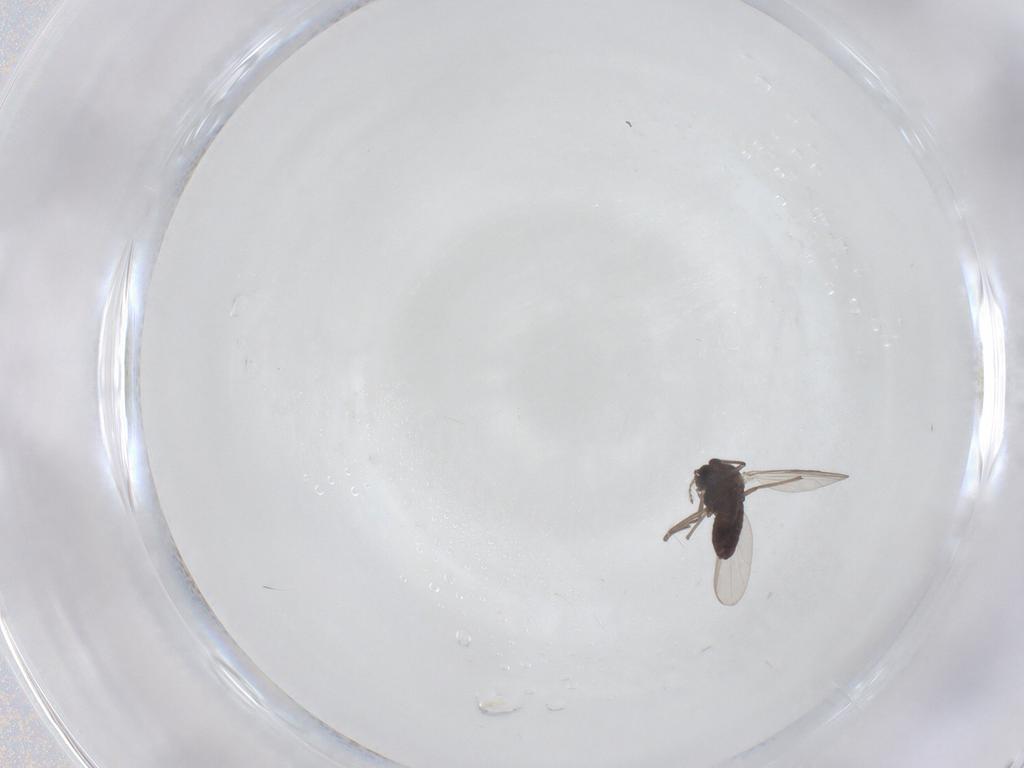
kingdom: Animalia
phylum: Arthropoda
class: Insecta
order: Diptera
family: Chironomidae
